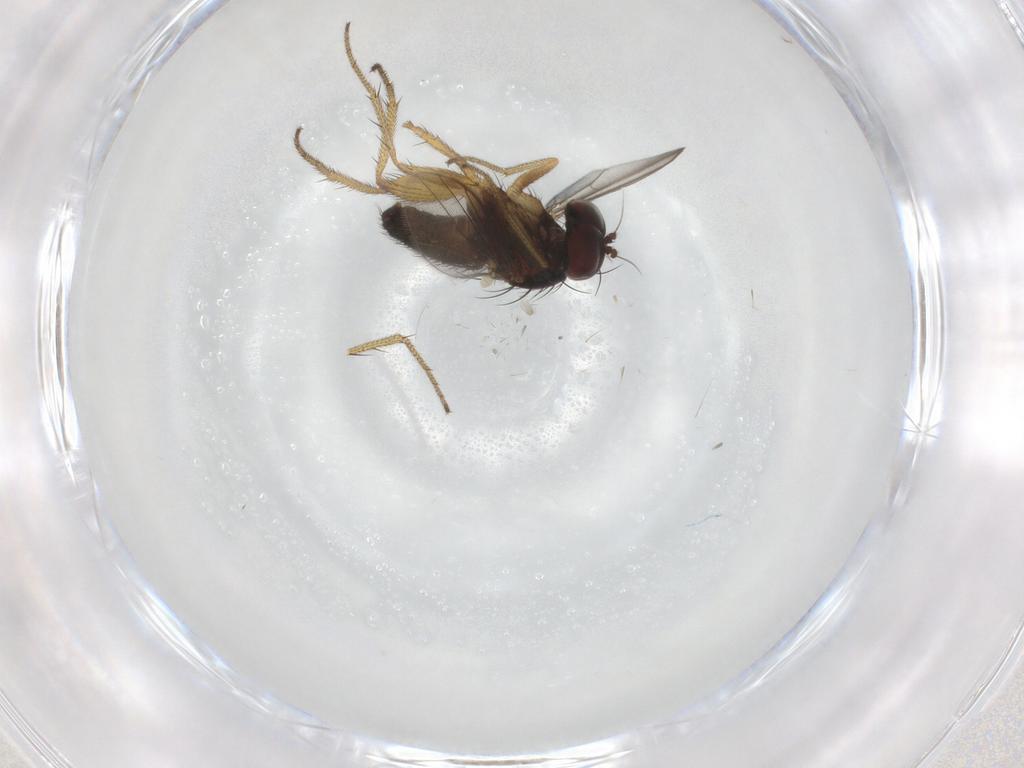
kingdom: Animalia
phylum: Arthropoda
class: Insecta
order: Diptera
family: Dolichopodidae
